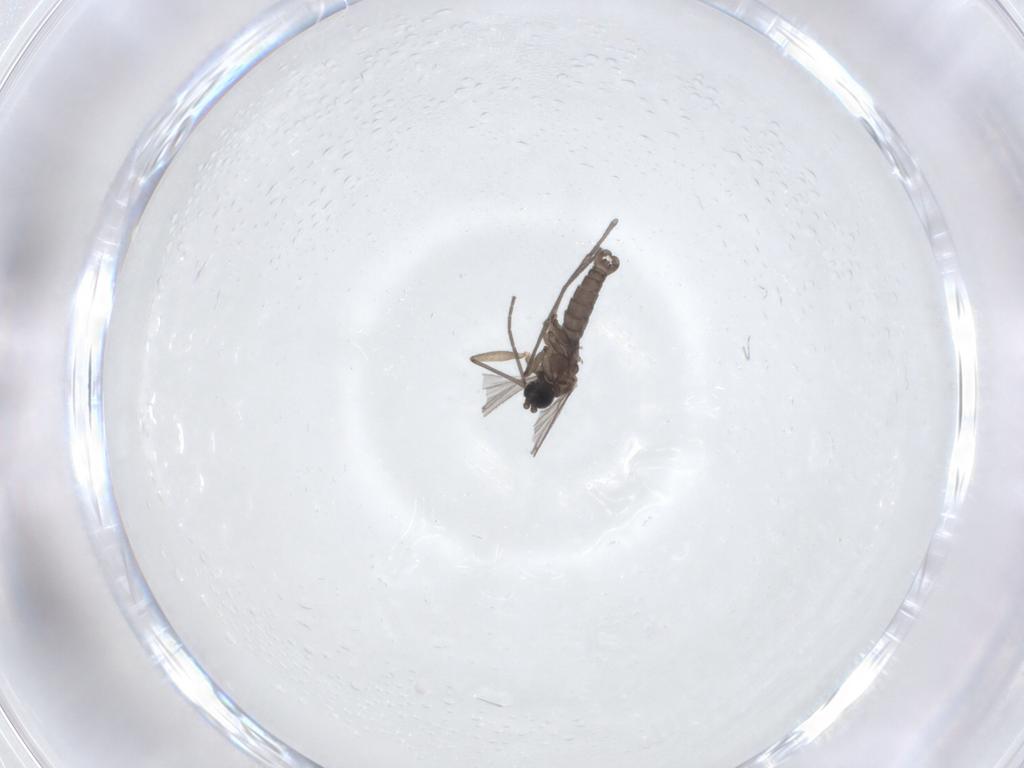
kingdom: Animalia
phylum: Arthropoda
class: Insecta
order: Diptera
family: Sciaridae
